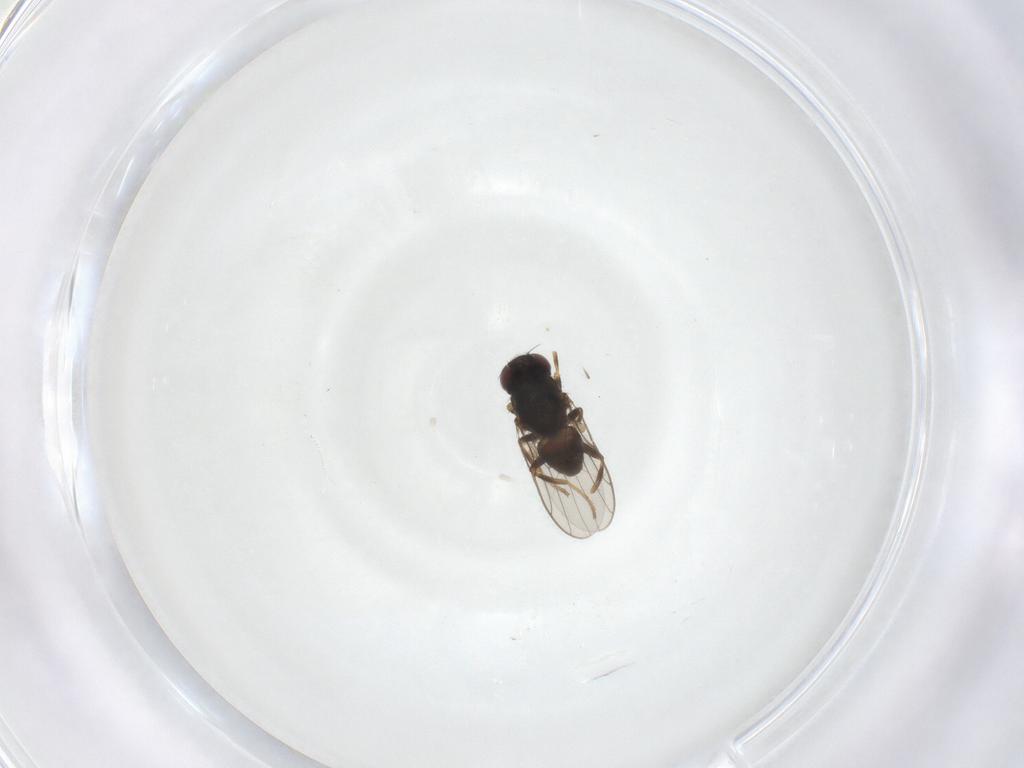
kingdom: Animalia
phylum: Arthropoda
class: Insecta
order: Diptera
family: Chloropidae
